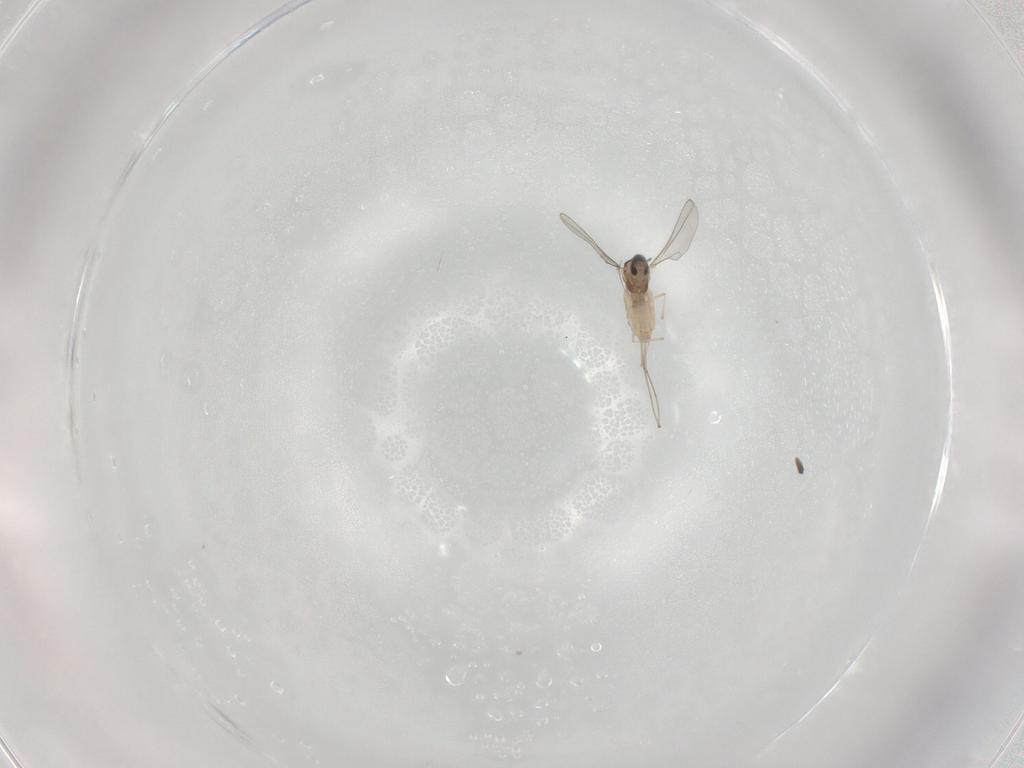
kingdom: Animalia
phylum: Arthropoda
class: Insecta
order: Diptera
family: Cecidomyiidae
